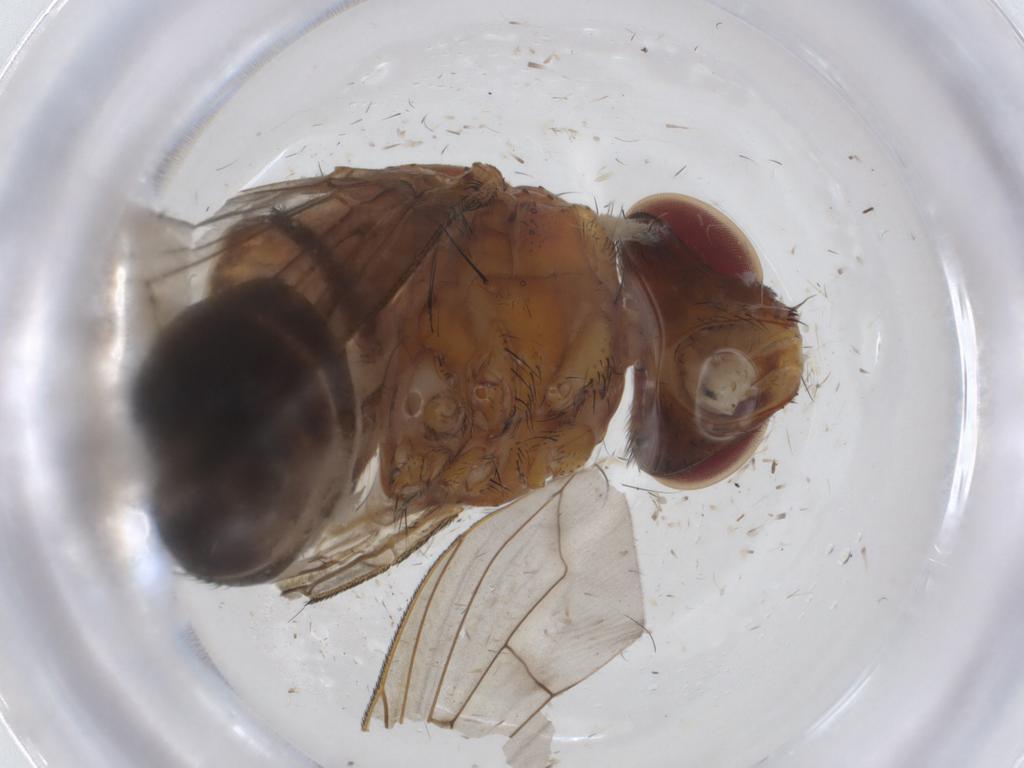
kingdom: Animalia
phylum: Arthropoda
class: Insecta
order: Diptera
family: Tachinidae
